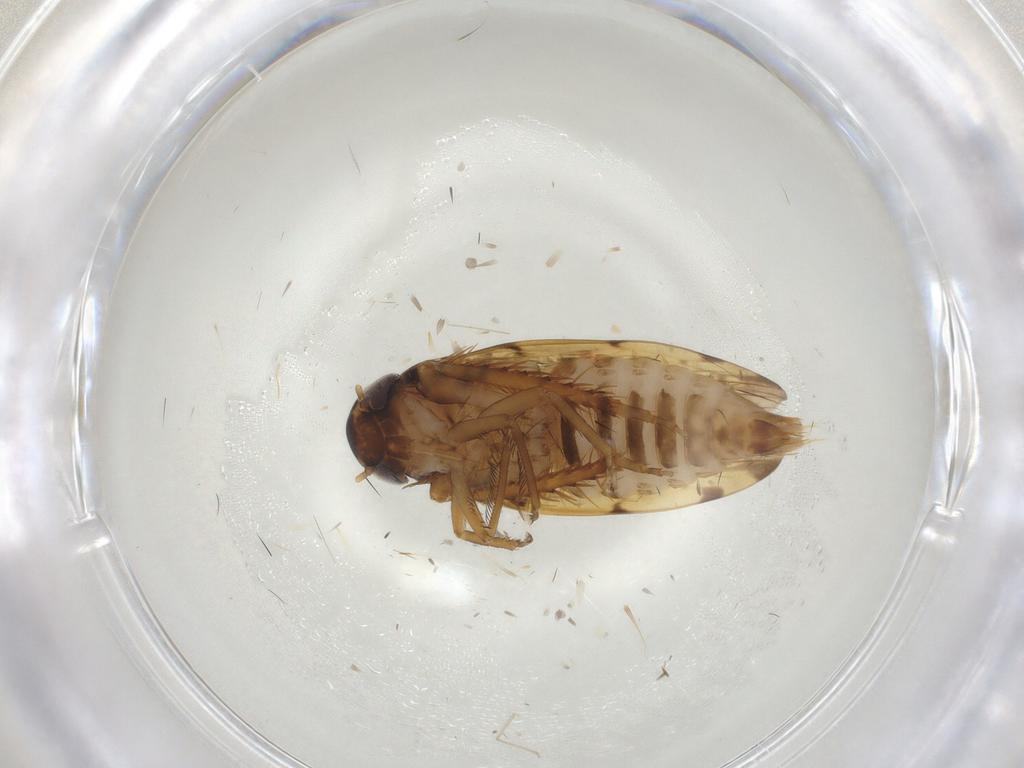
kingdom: Animalia
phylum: Arthropoda
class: Insecta
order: Hemiptera
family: Cicadellidae
